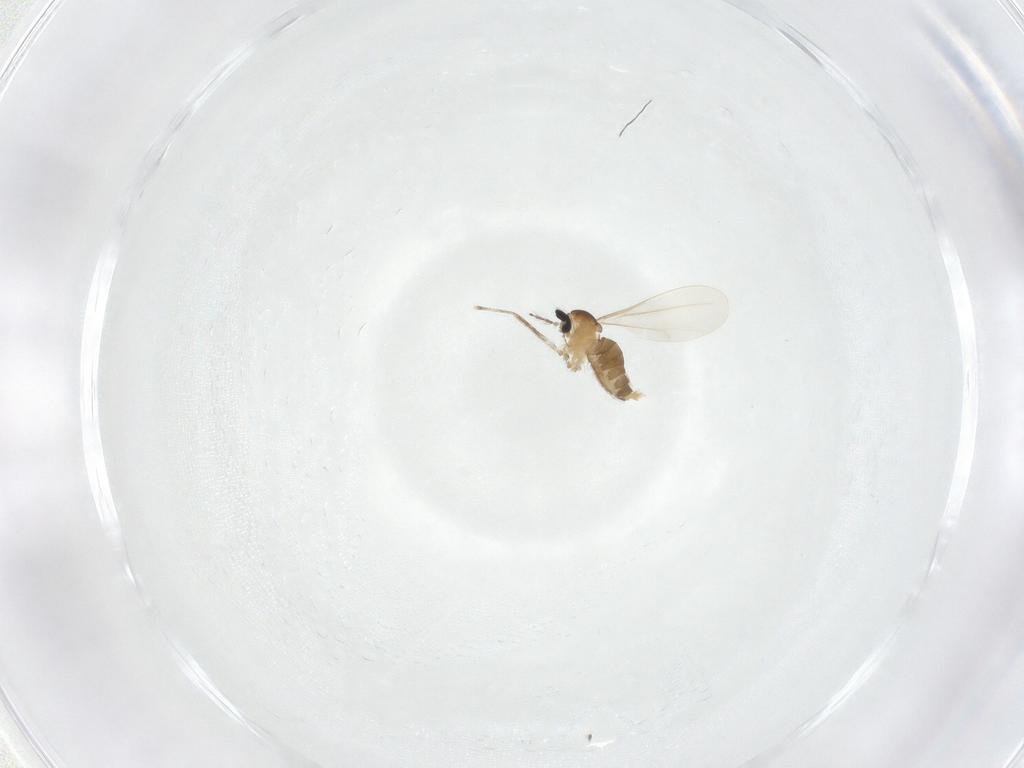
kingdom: Animalia
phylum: Arthropoda
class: Insecta
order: Diptera
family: Cecidomyiidae
